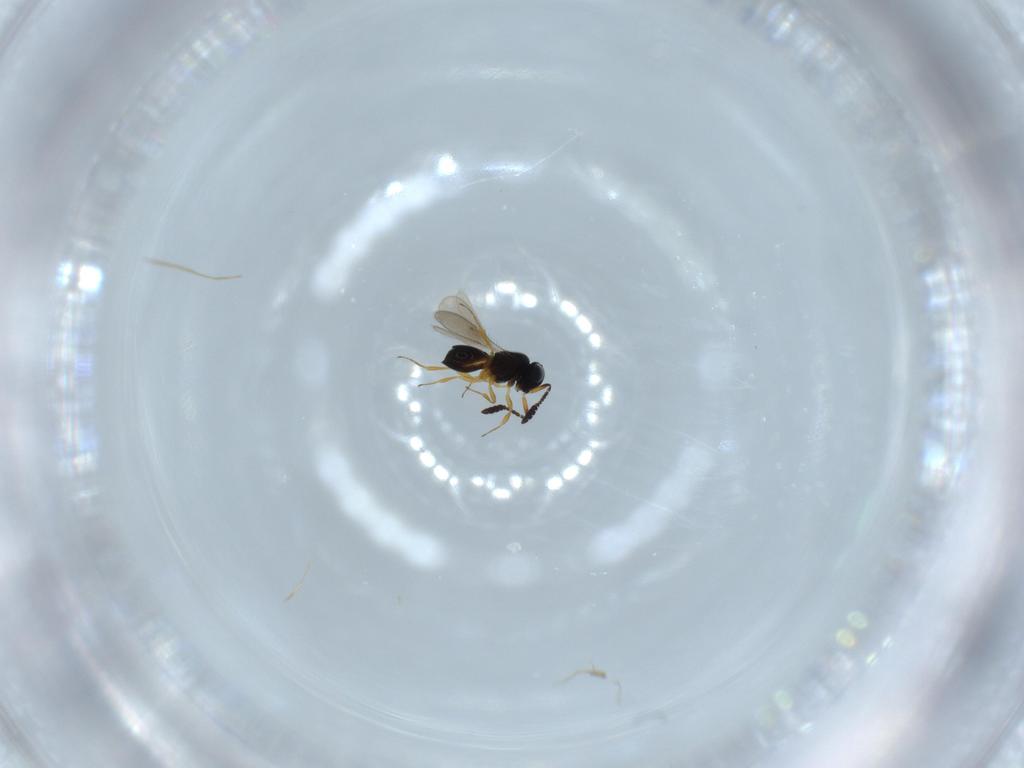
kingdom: Animalia
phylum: Arthropoda
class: Insecta
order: Hymenoptera
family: Scelionidae
